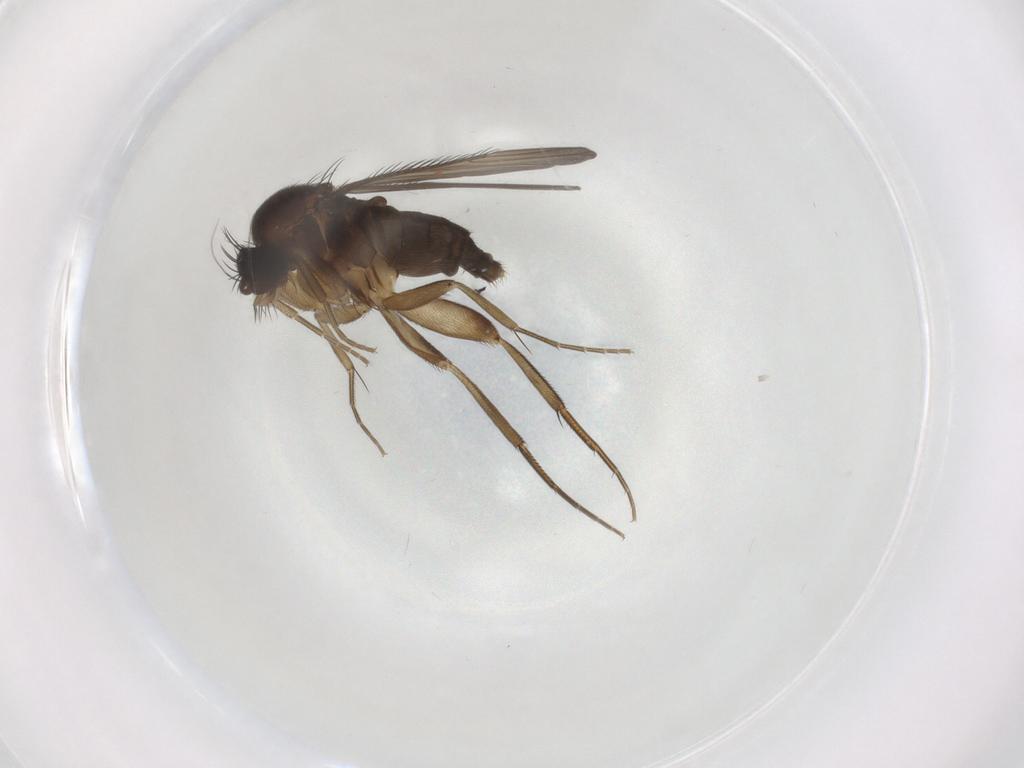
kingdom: Animalia
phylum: Arthropoda
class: Insecta
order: Diptera
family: Phoridae
